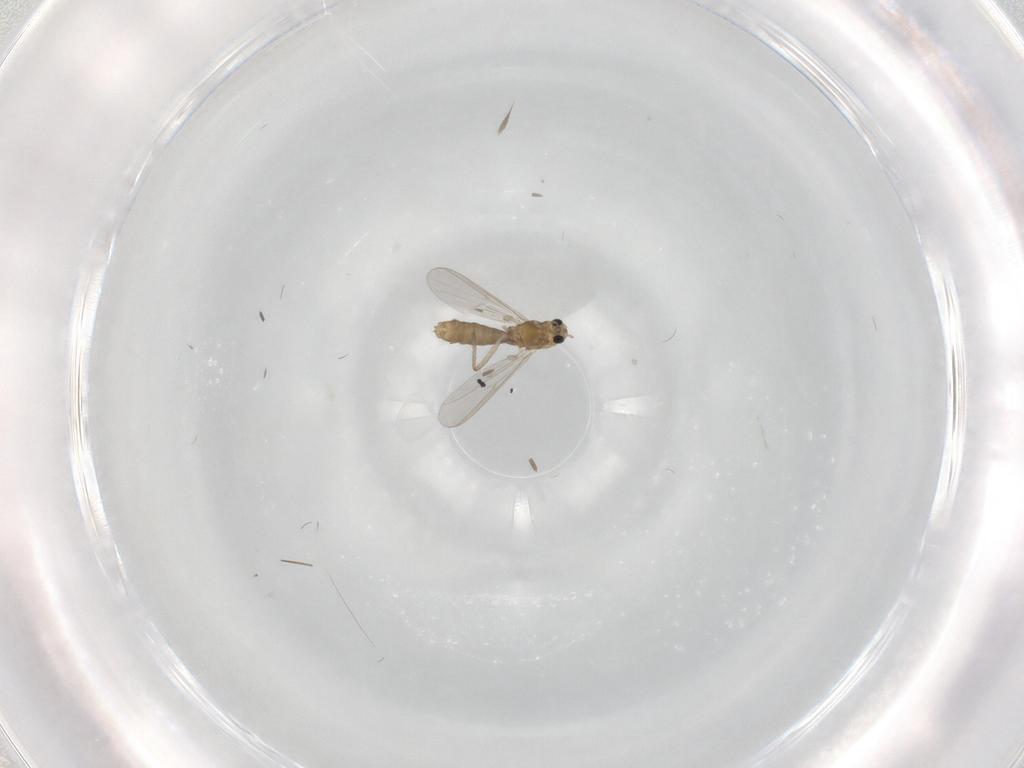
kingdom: Animalia
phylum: Arthropoda
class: Insecta
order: Diptera
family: Chironomidae
